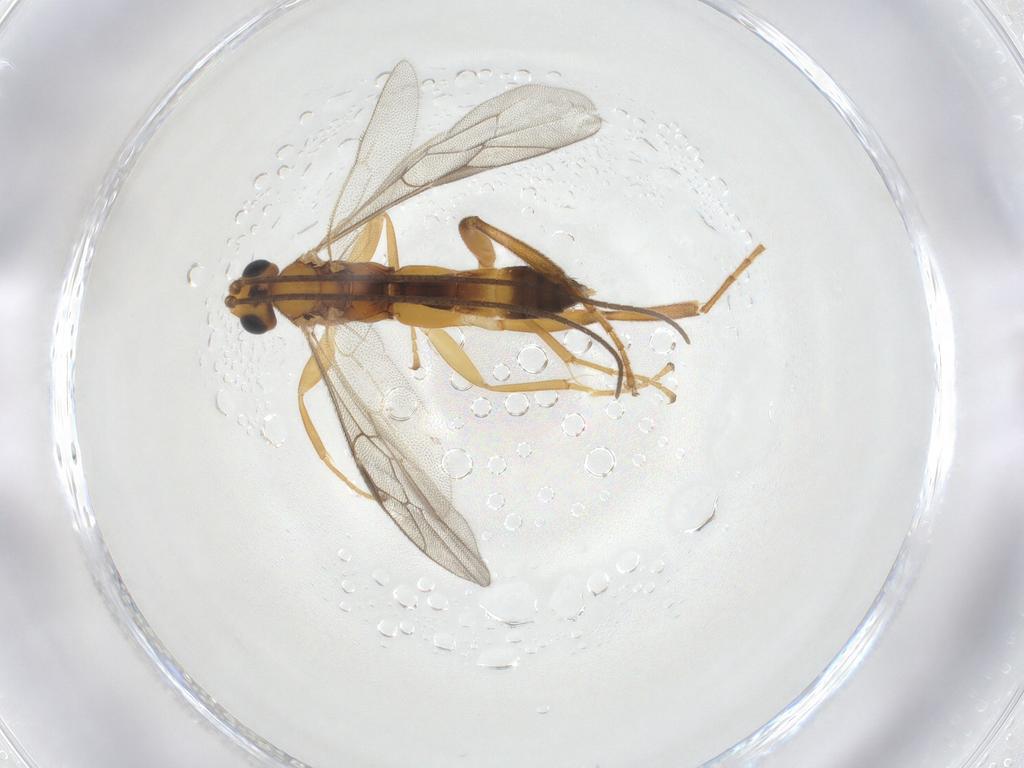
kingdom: Animalia
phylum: Arthropoda
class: Insecta
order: Hymenoptera
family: Ichneumonidae
